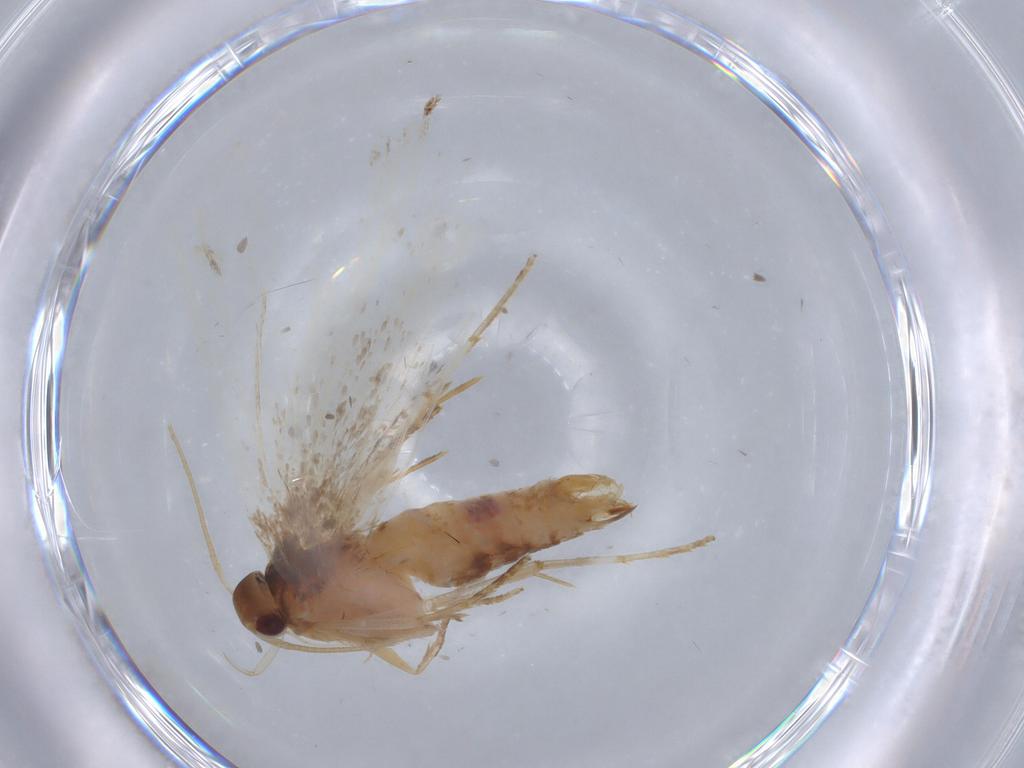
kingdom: Animalia
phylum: Arthropoda
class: Insecta
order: Lepidoptera
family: Gelechiidae
